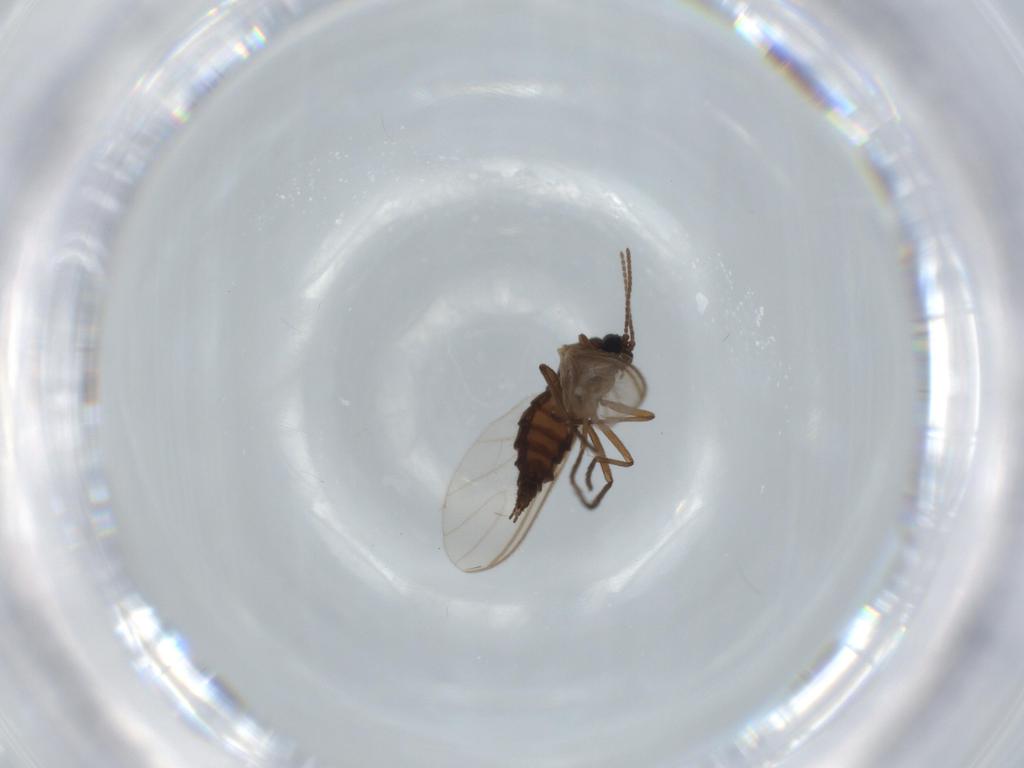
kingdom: Animalia
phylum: Arthropoda
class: Insecta
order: Diptera
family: Sciaridae
